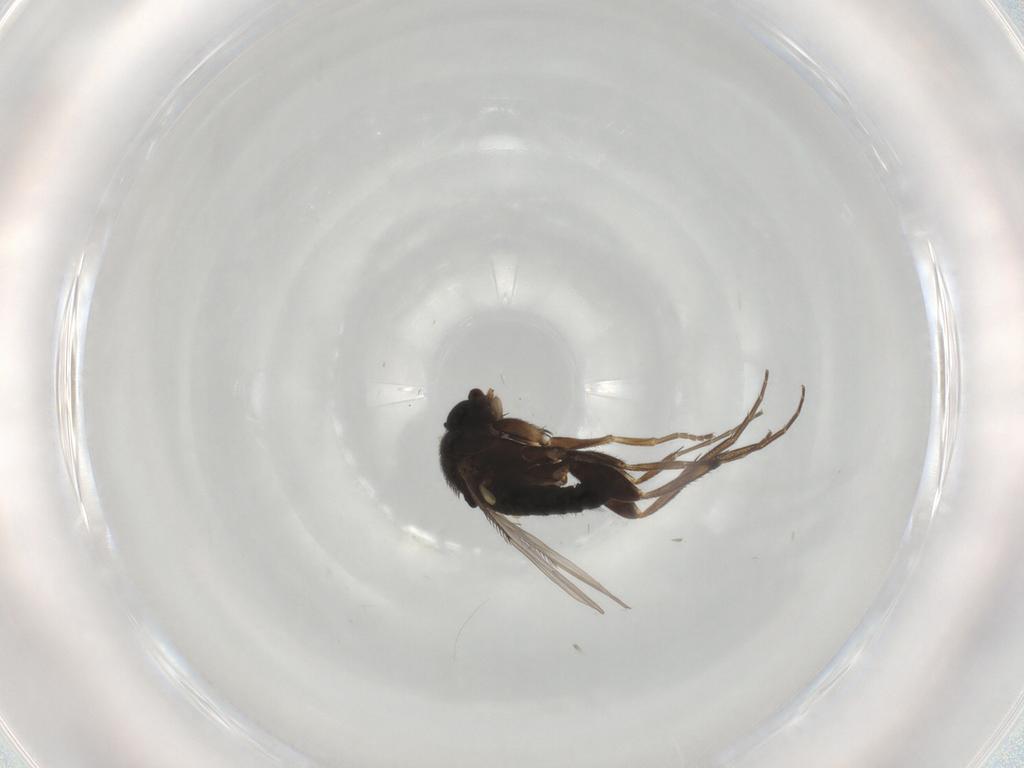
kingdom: Animalia
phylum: Arthropoda
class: Insecta
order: Diptera
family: Phoridae
